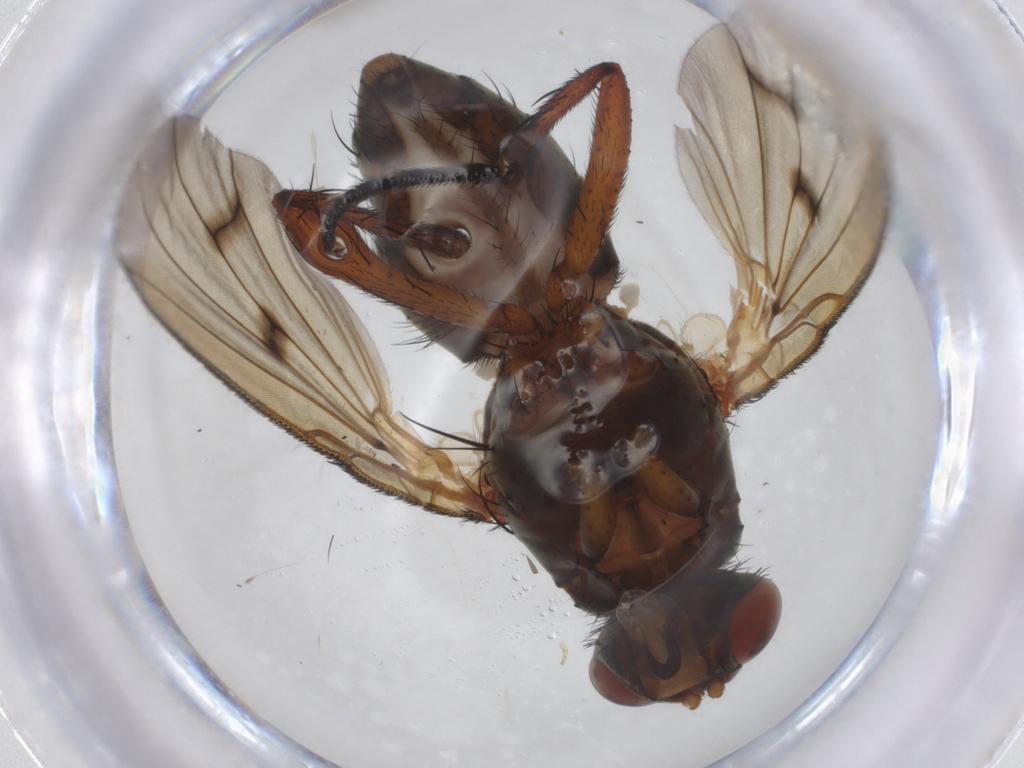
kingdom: Animalia
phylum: Arthropoda
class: Insecta
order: Diptera
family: Anthomyiidae
